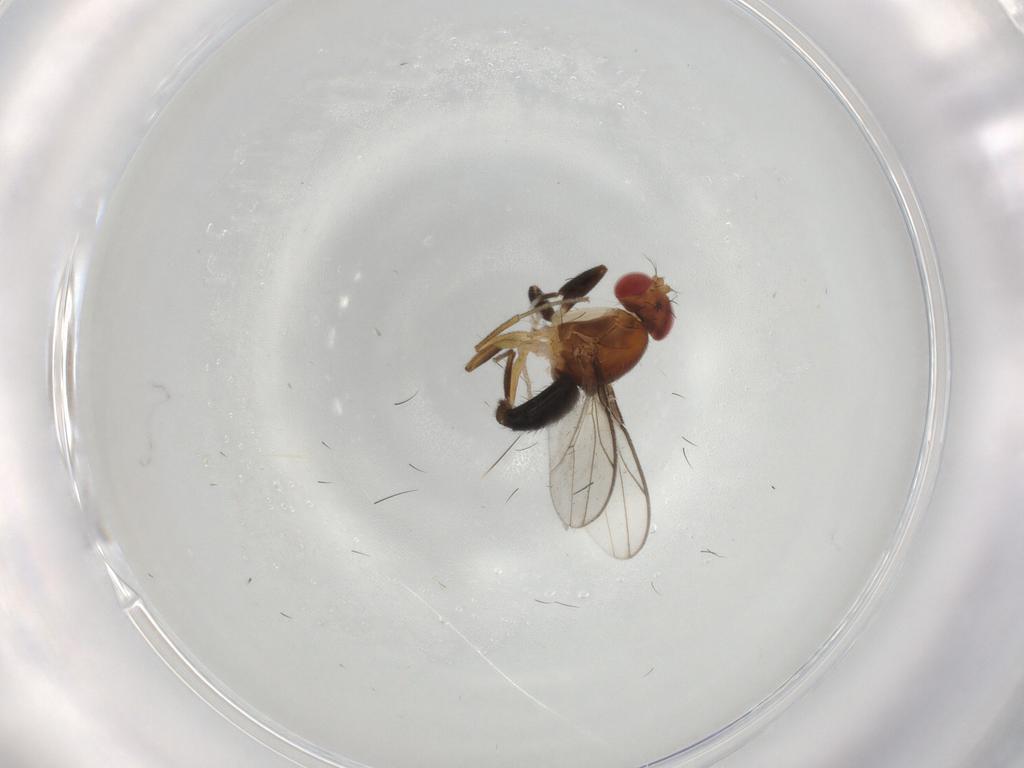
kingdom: Animalia
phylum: Arthropoda
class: Insecta
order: Diptera
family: Drosophilidae
